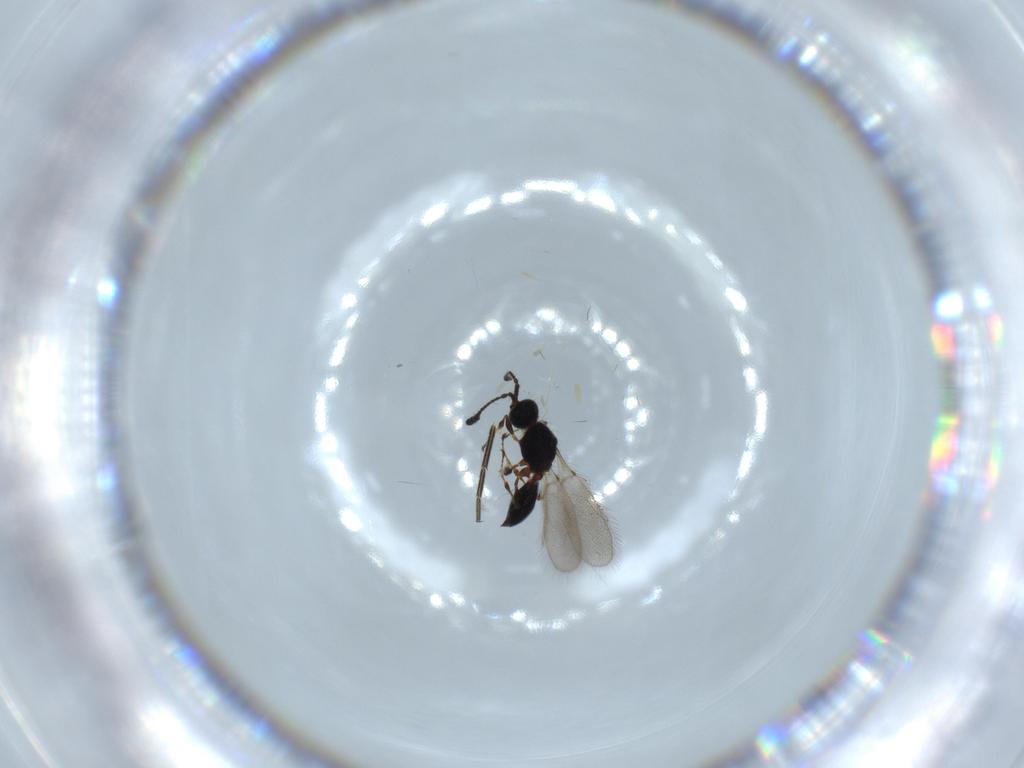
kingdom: Animalia
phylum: Arthropoda
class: Insecta
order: Hymenoptera
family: Diapriidae
